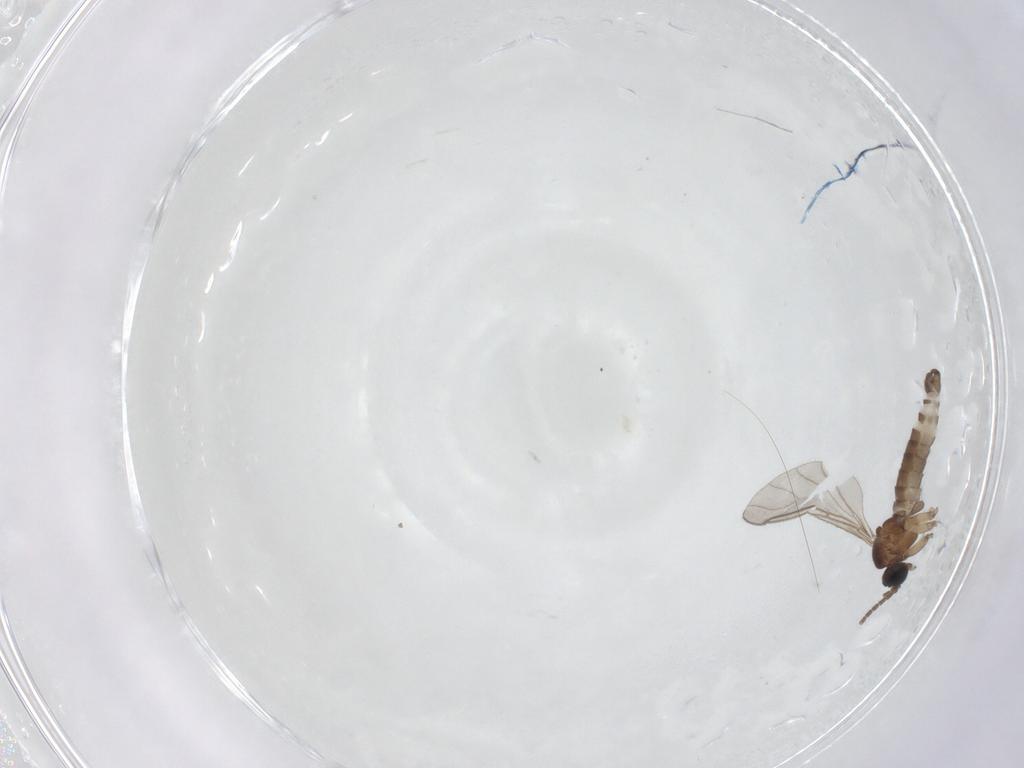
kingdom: Animalia
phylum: Arthropoda
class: Insecta
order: Diptera
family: Sciaridae
